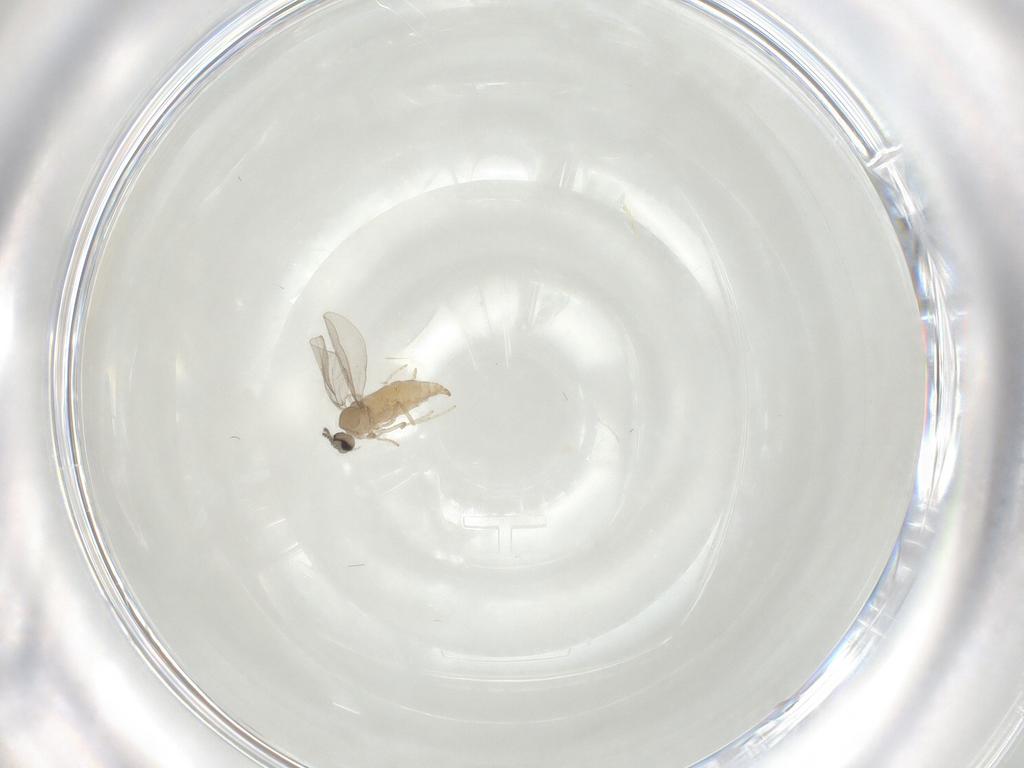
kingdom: Animalia
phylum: Arthropoda
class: Insecta
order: Diptera
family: Cecidomyiidae
